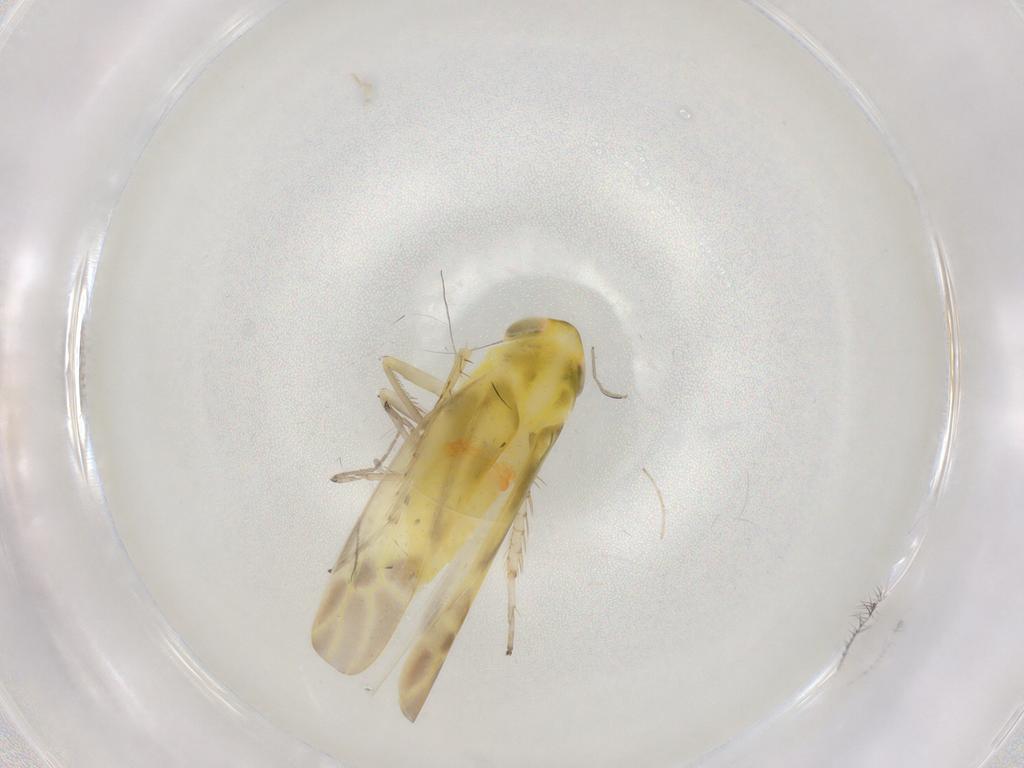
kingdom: Animalia
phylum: Arthropoda
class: Insecta
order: Hemiptera
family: Cicadellidae
